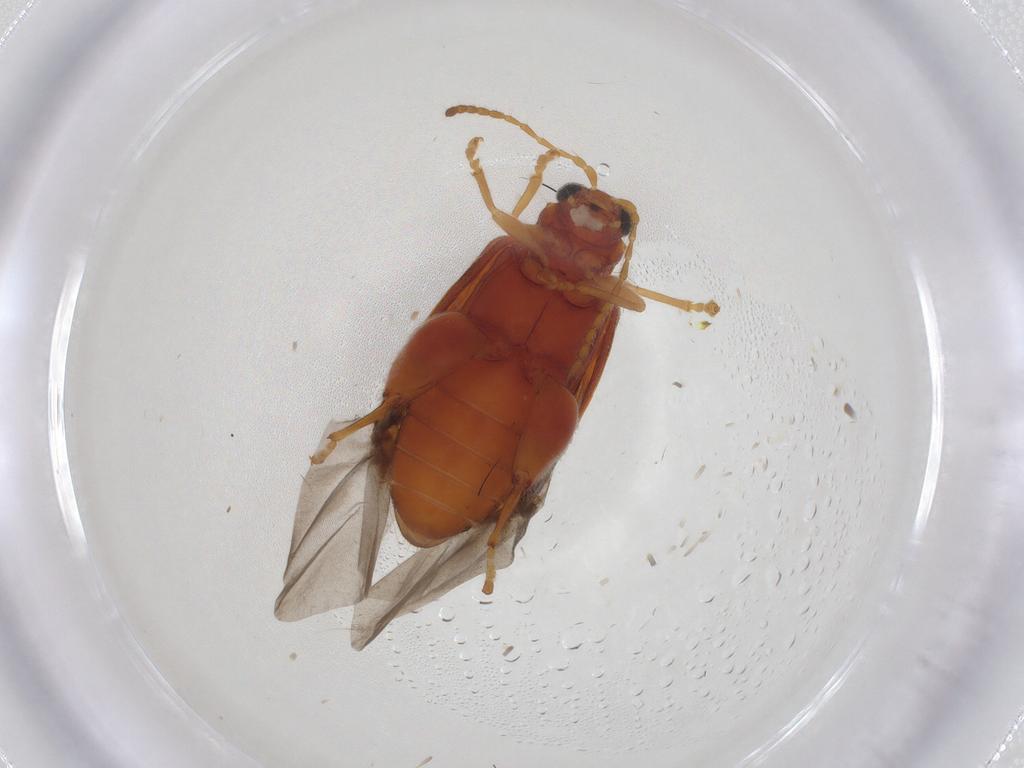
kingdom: Animalia
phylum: Arthropoda
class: Insecta
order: Coleoptera
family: Chrysomelidae
